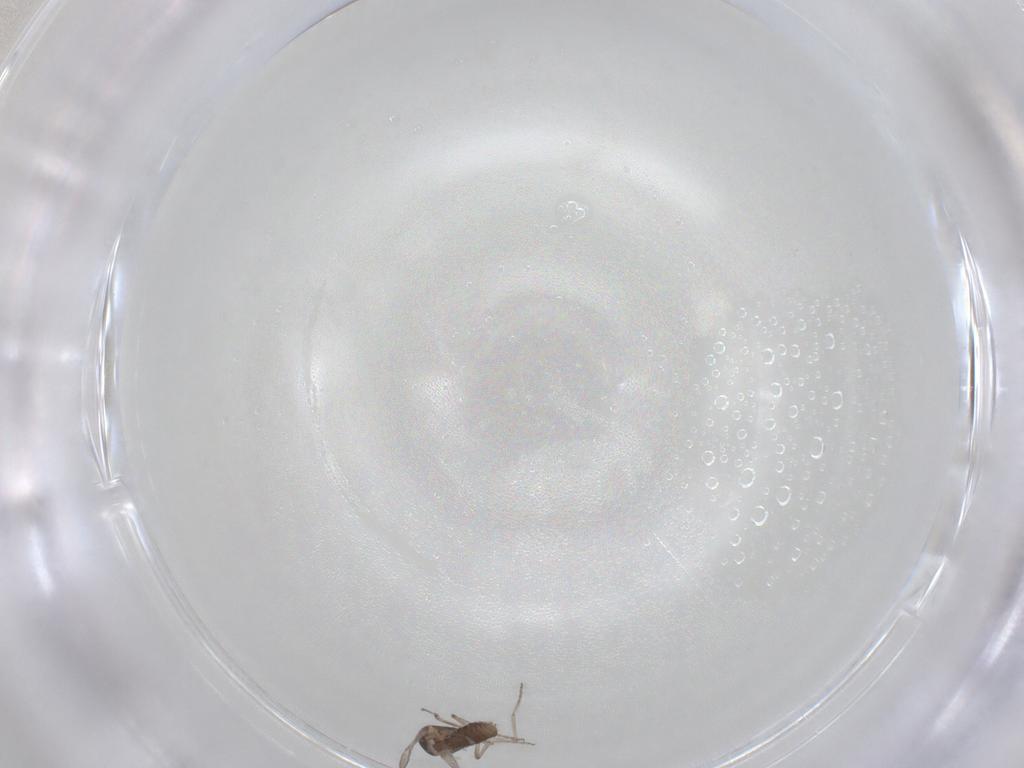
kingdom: Animalia
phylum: Arthropoda
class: Insecta
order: Diptera
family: Ceratopogonidae
